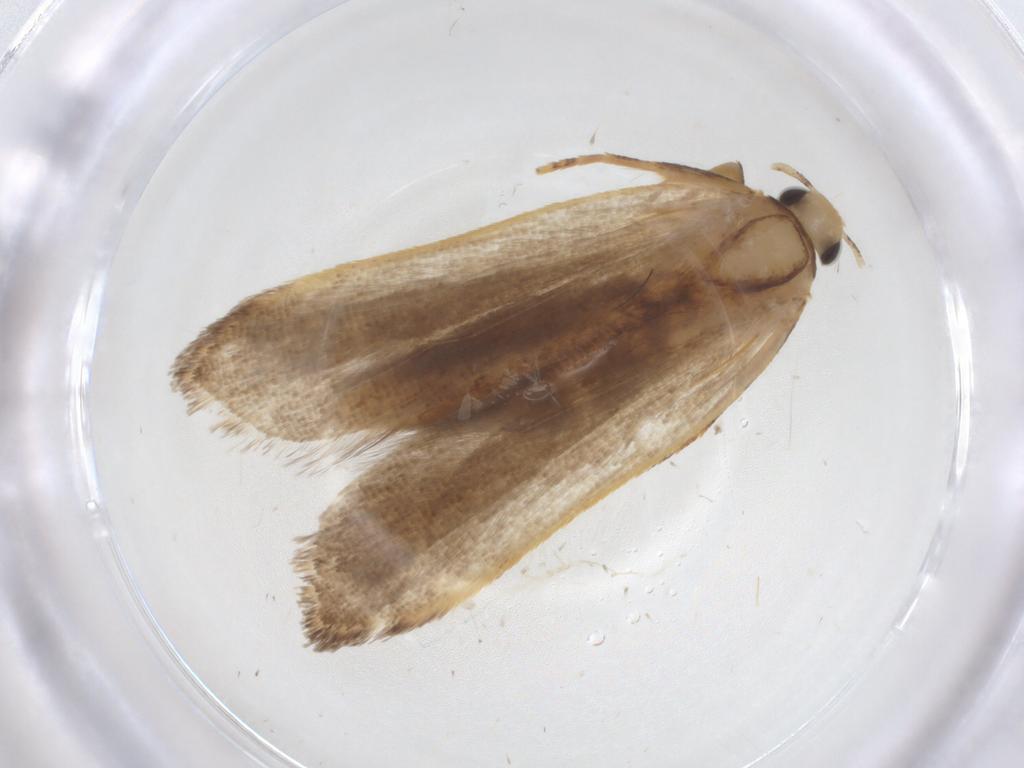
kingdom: Animalia
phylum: Arthropoda
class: Insecta
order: Lepidoptera
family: Gelechiidae
